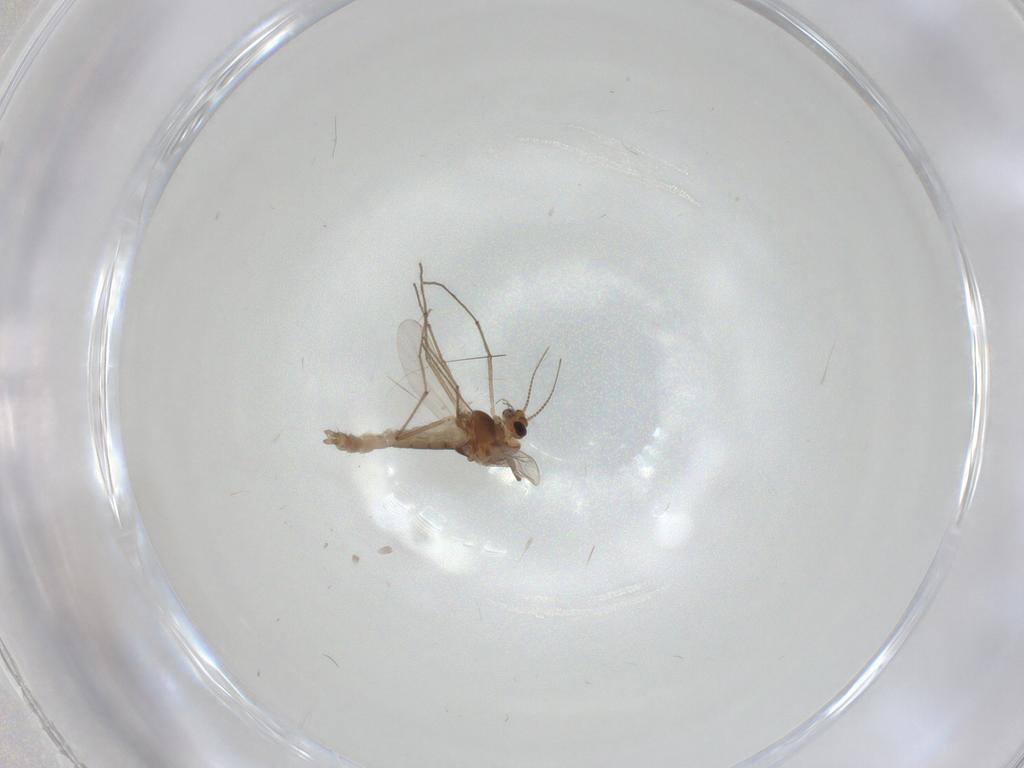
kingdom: Animalia
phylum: Arthropoda
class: Insecta
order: Diptera
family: Chironomidae
